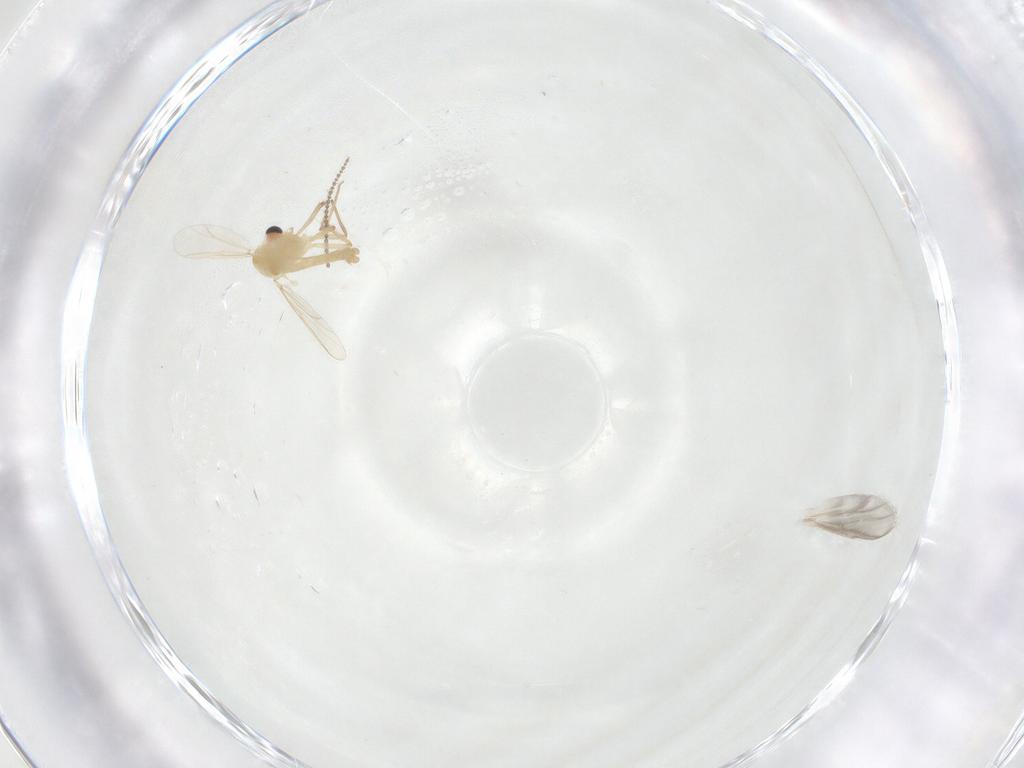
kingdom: Animalia
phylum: Arthropoda
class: Insecta
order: Diptera
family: Chironomidae
